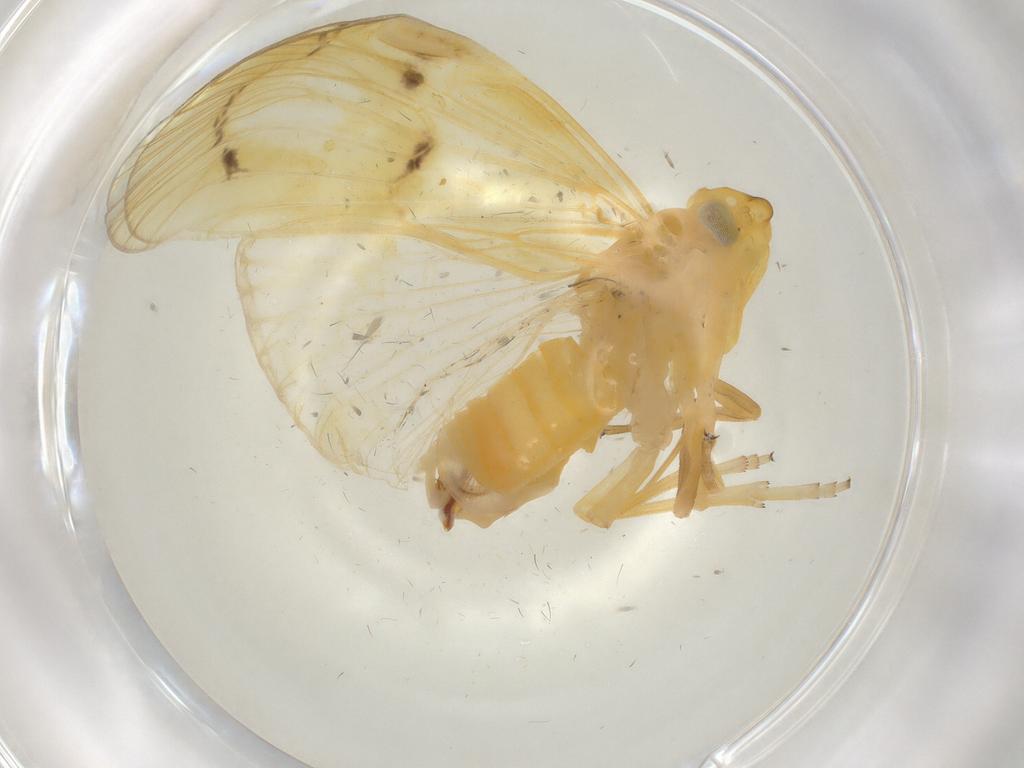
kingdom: Animalia
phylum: Arthropoda
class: Insecta
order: Hemiptera
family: Cixiidae
